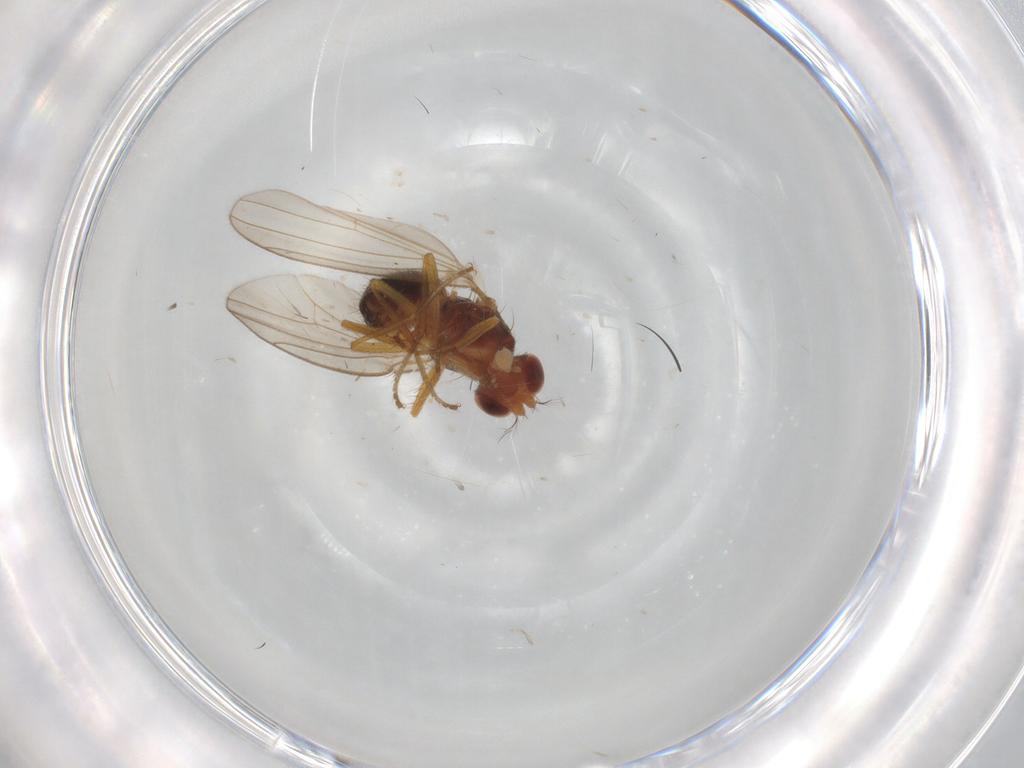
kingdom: Animalia
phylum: Arthropoda
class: Insecta
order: Diptera
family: Drosophilidae
